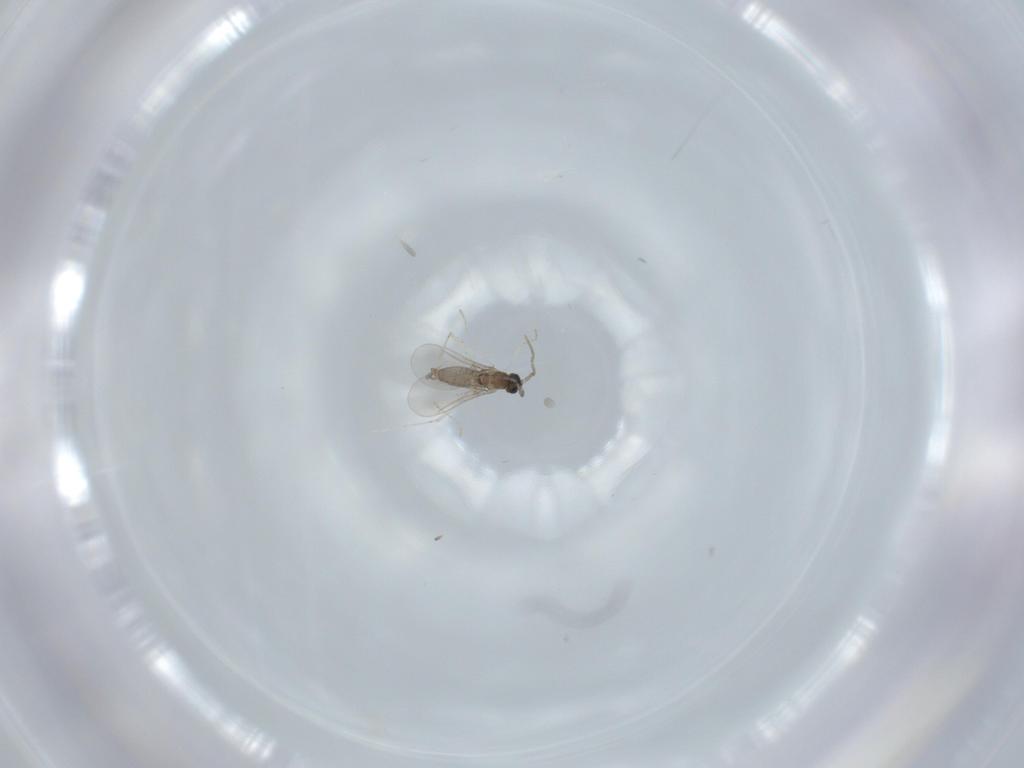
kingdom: Animalia
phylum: Arthropoda
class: Insecta
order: Diptera
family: Cecidomyiidae
